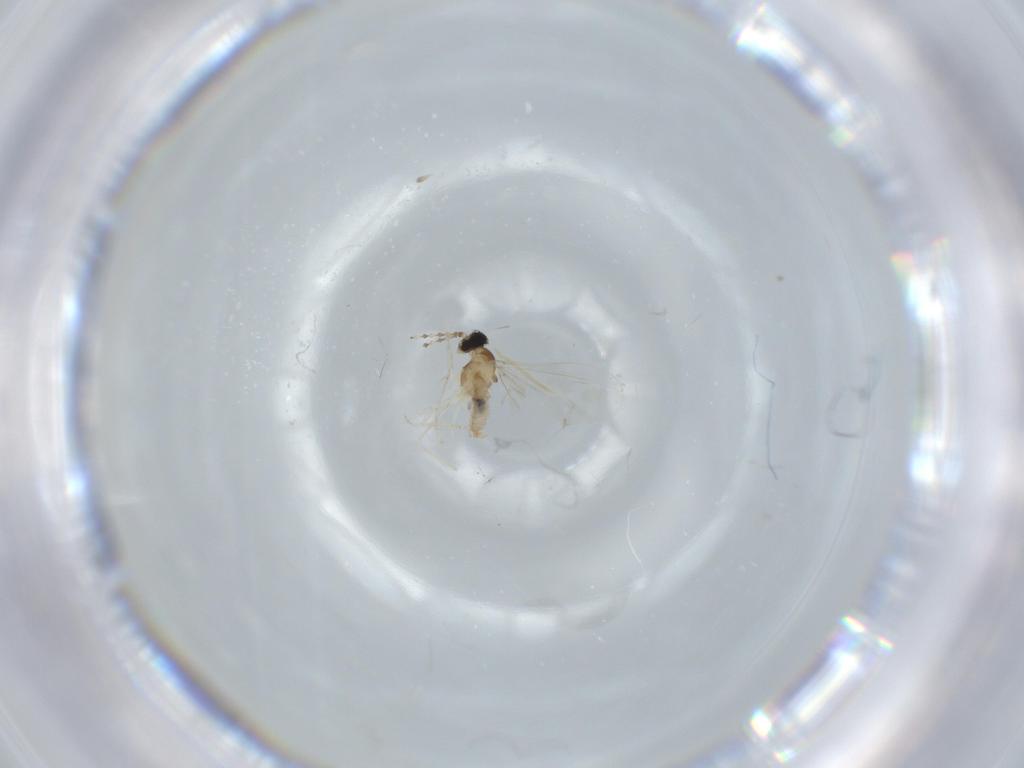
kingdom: Animalia
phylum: Arthropoda
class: Insecta
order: Diptera
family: Cecidomyiidae
